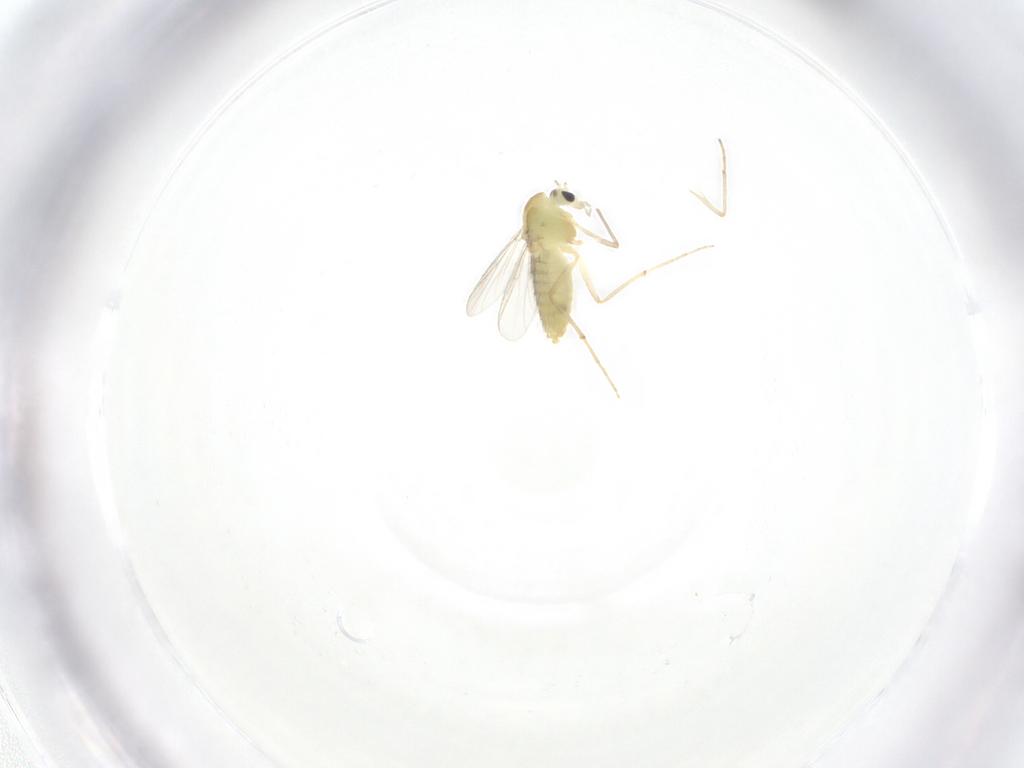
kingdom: Animalia
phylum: Arthropoda
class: Insecta
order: Diptera
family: Chironomidae
